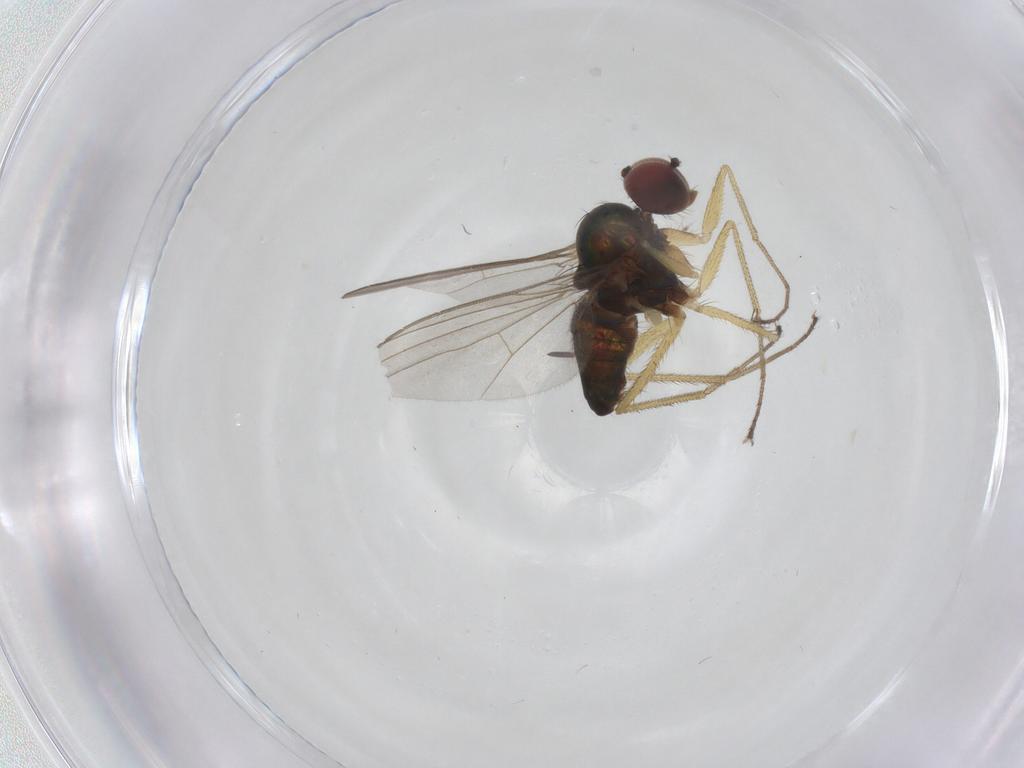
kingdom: Animalia
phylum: Arthropoda
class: Insecta
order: Diptera
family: Dolichopodidae
